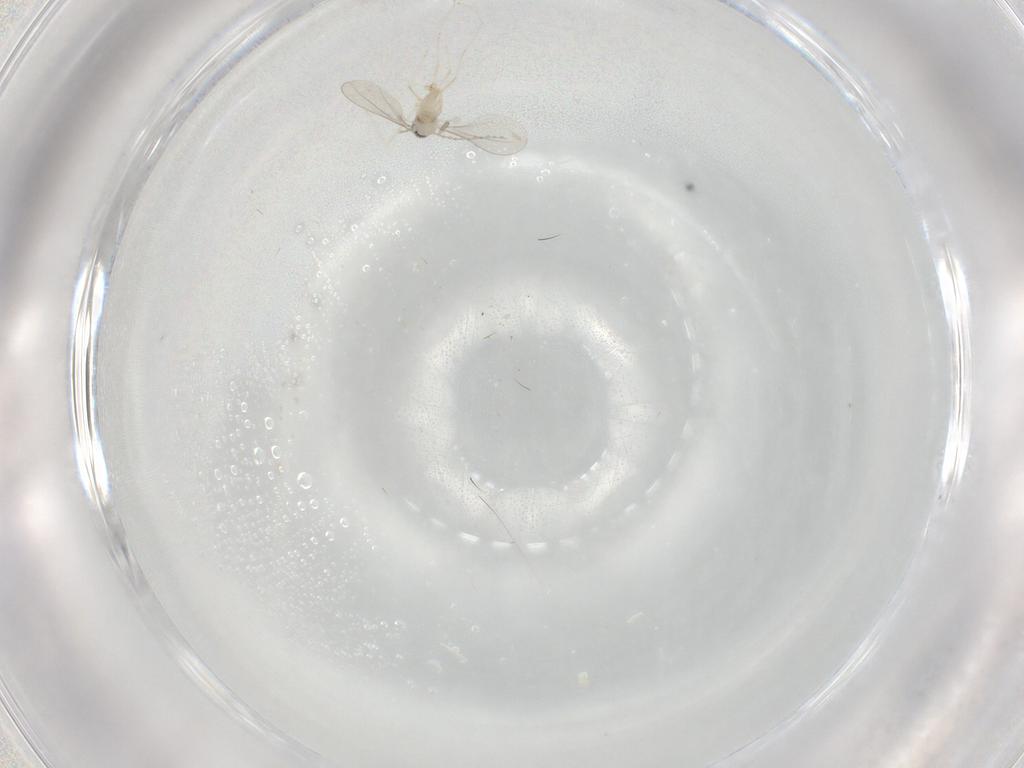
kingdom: Animalia
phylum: Arthropoda
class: Insecta
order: Diptera
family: Cecidomyiidae
